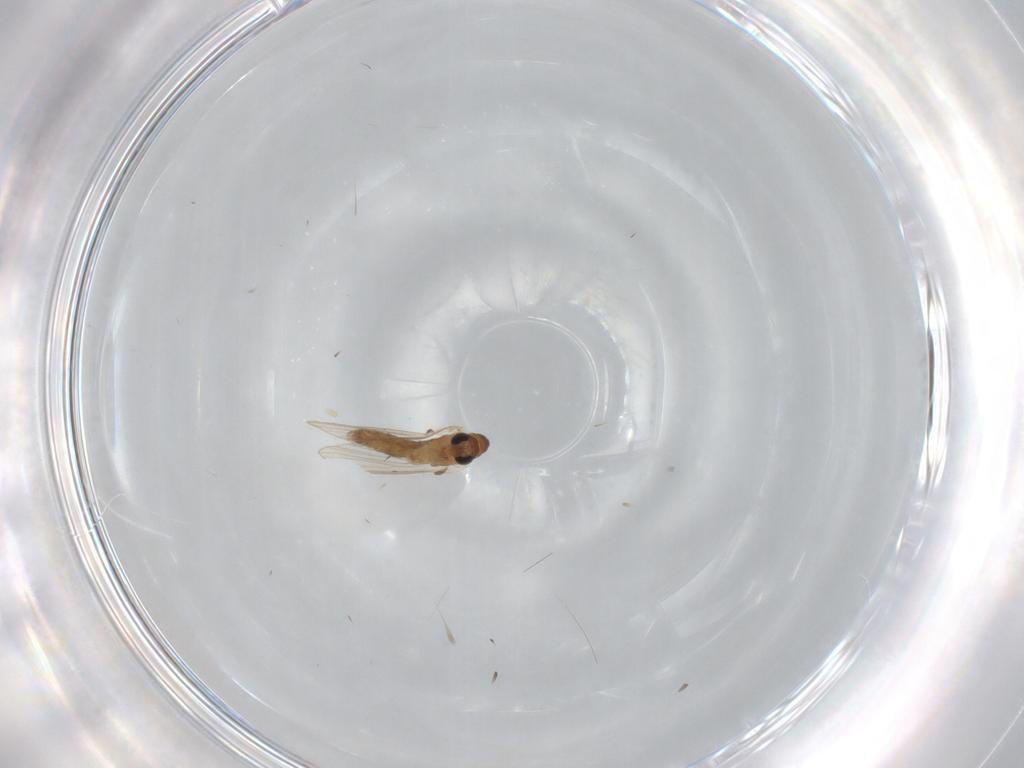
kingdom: Animalia
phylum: Arthropoda
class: Insecta
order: Diptera
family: Psychodidae
